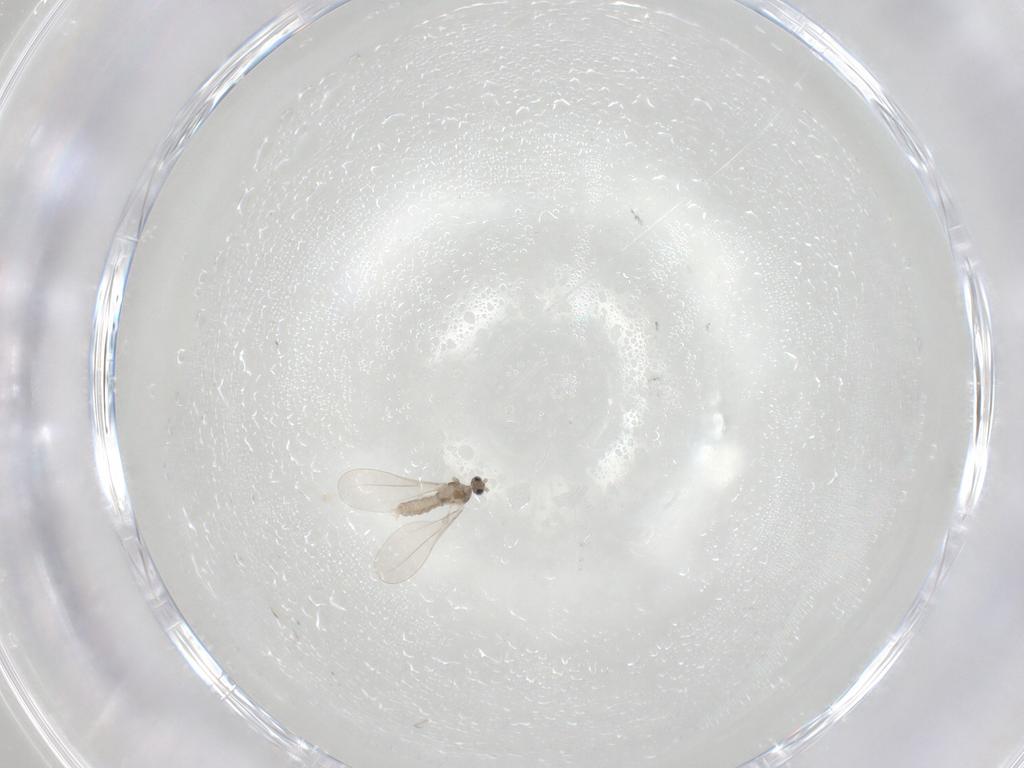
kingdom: Animalia
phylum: Arthropoda
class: Insecta
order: Diptera
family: Cecidomyiidae
